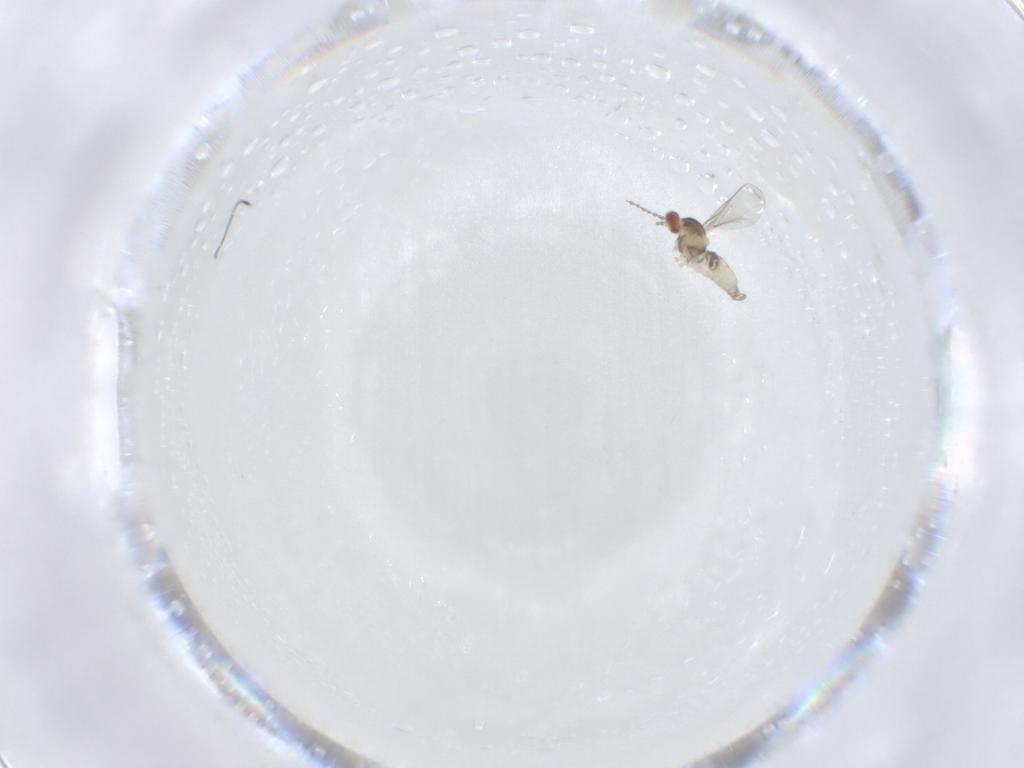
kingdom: Animalia
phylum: Arthropoda
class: Insecta
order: Diptera
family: Cecidomyiidae
